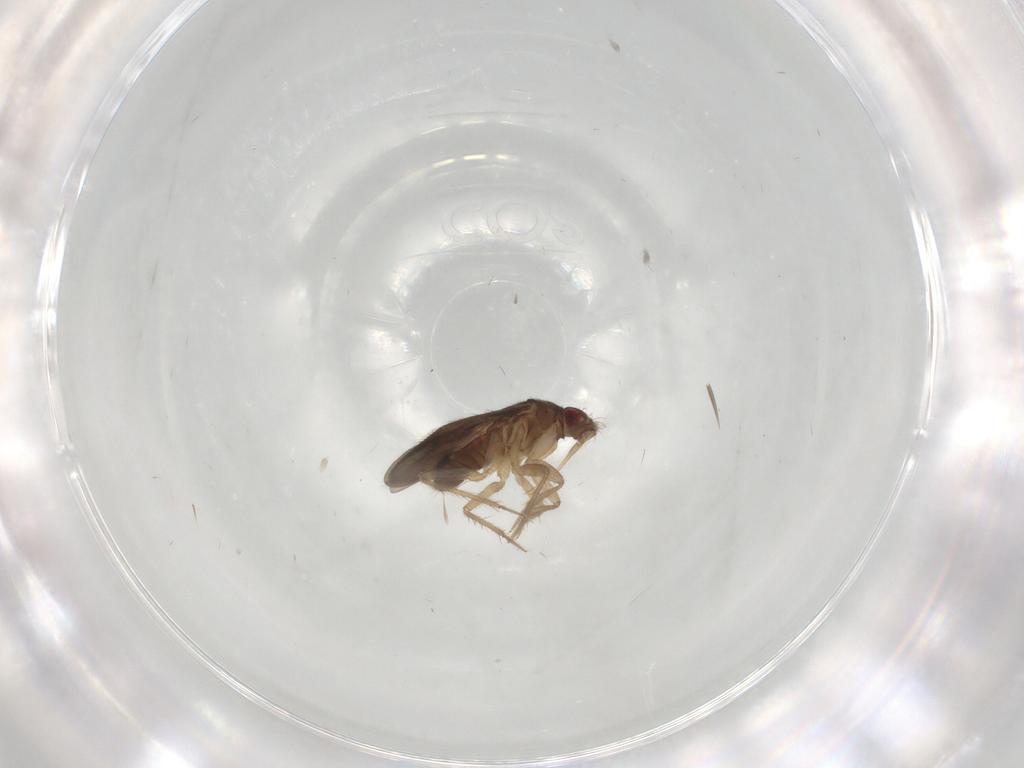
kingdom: Animalia
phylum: Arthropoda
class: Insecta
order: Hemiptera
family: Ceratocombidae
